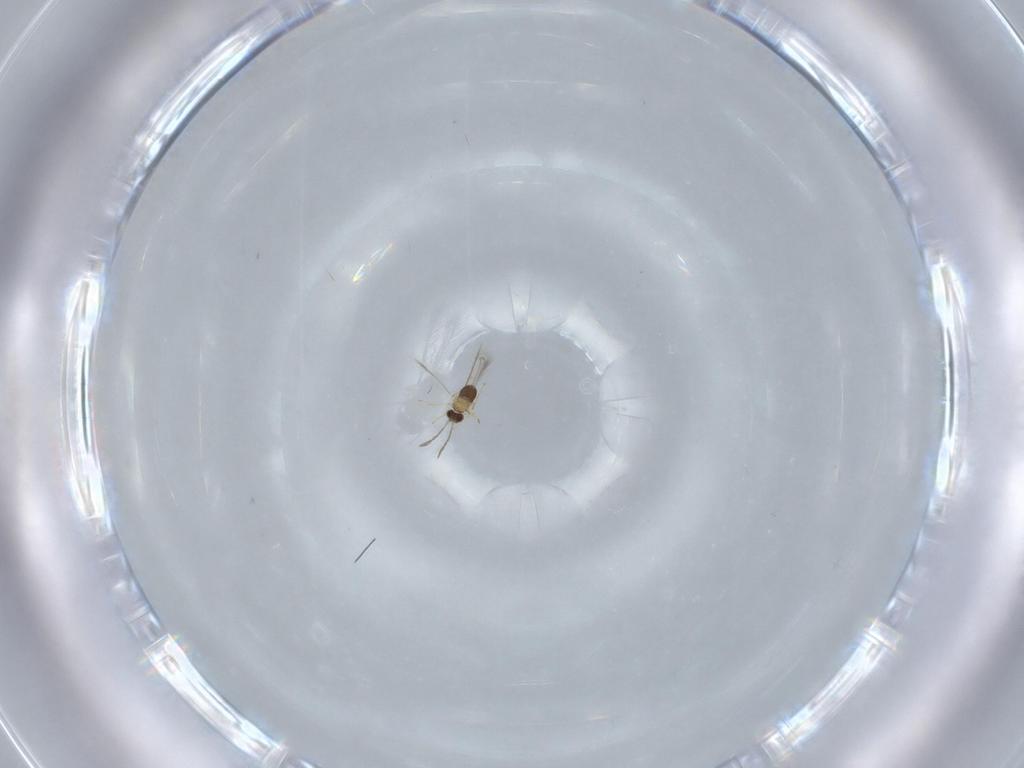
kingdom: Animalia
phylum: Arthropoda
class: Insecta
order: Hymenoptera
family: Mymaridae
